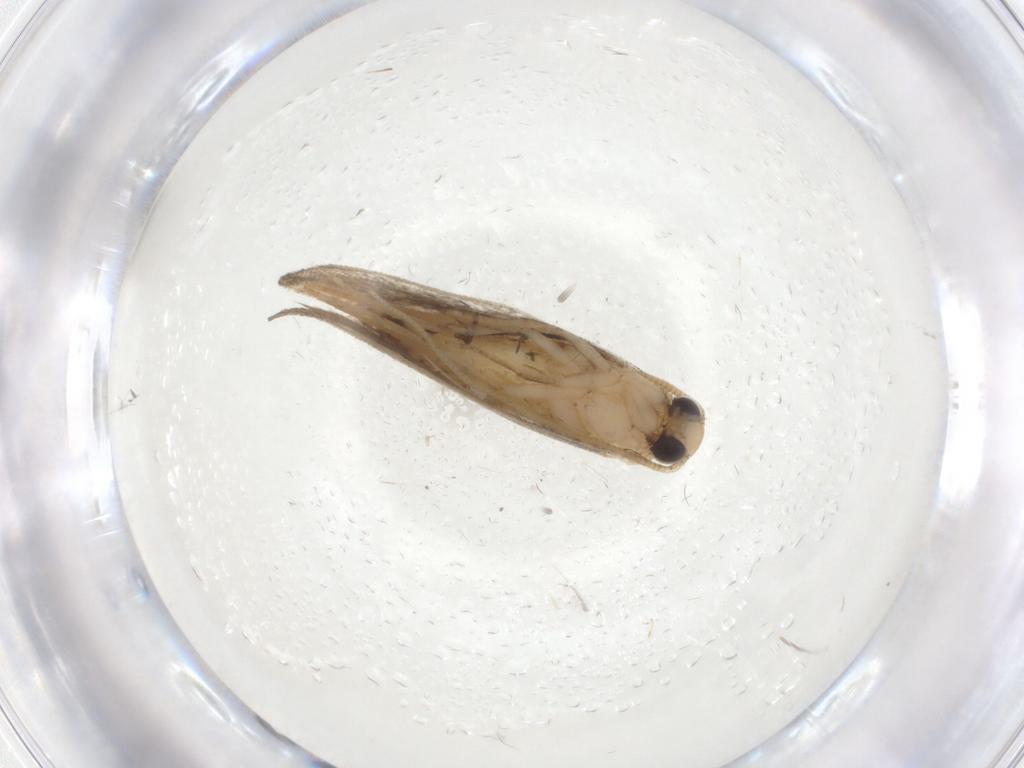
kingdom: Animalia
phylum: Arthropoda
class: Insecta
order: Lepidoptera
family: Tineidae
